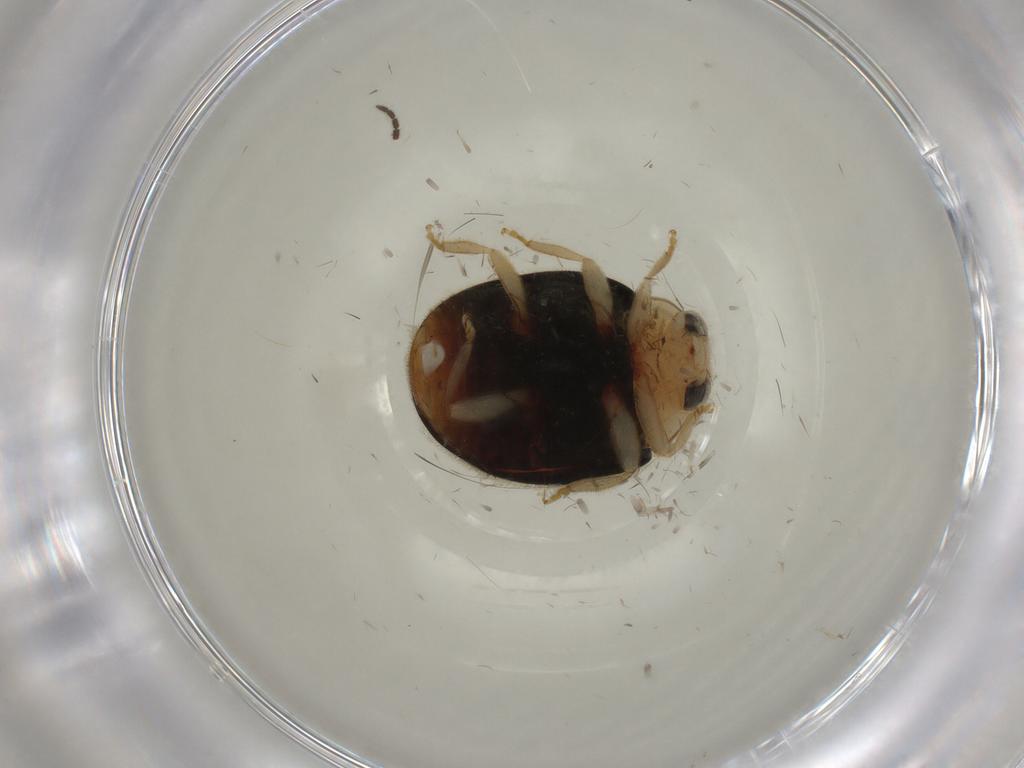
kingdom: Animalia
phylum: Arthropoda
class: Insecta
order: Coleoptera
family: Coccinellidae
